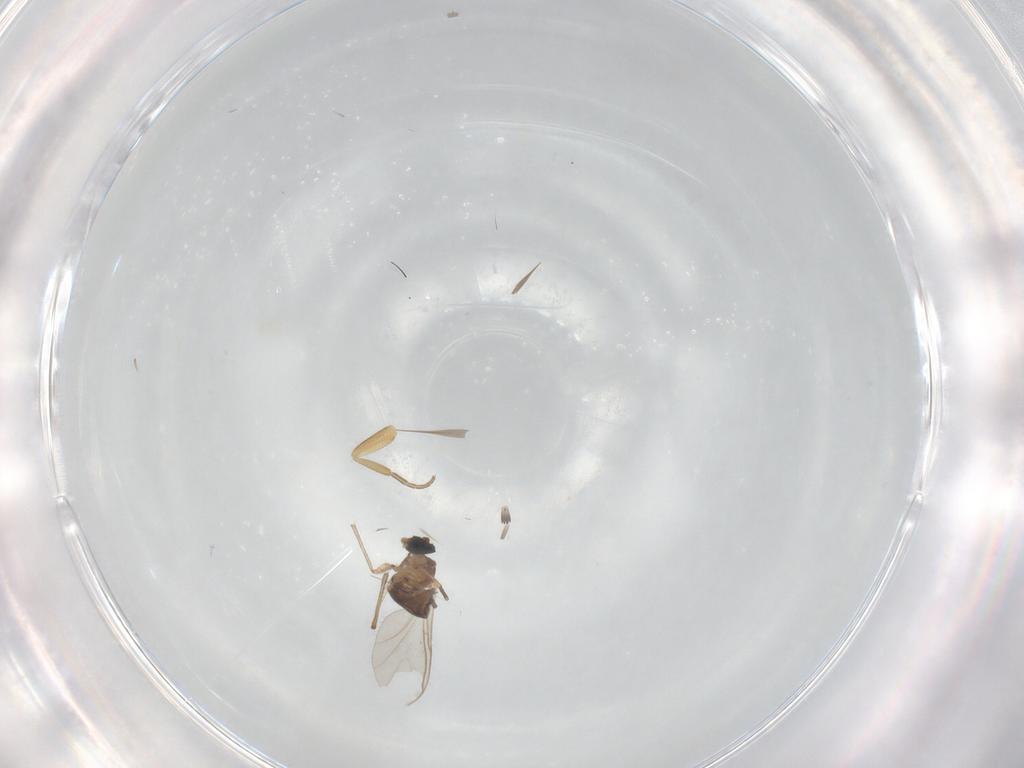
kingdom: Animalia
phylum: Arthropoda
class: Insecta
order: Diptera
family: Sciaridae
